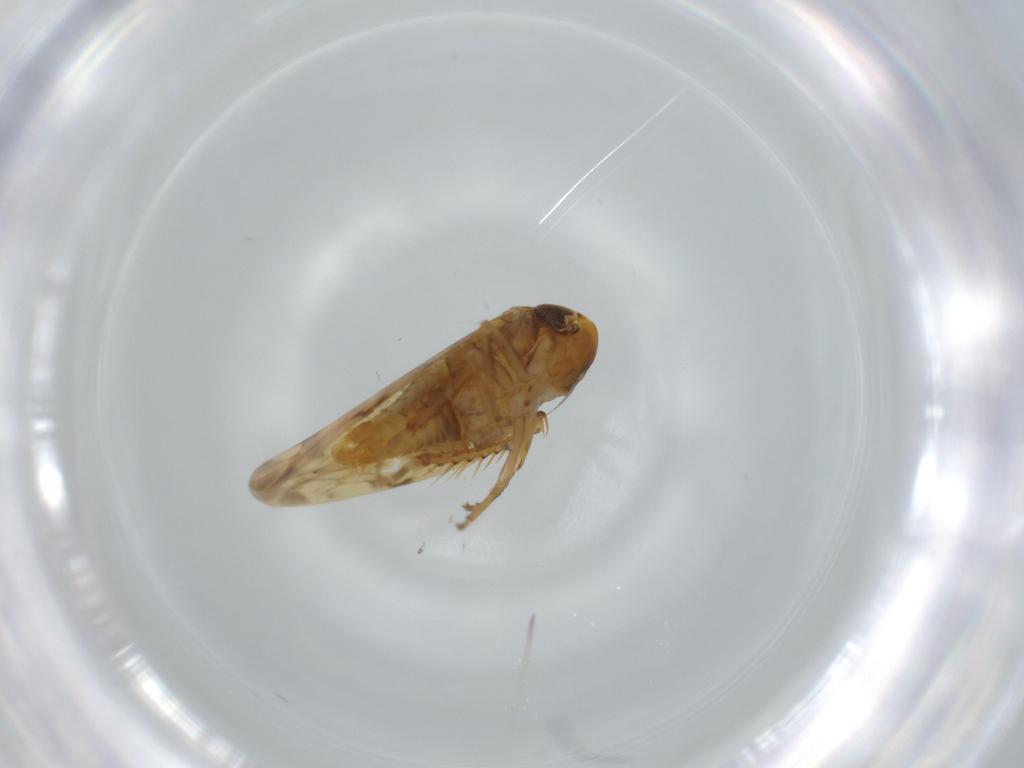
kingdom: Animalia
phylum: Arthropoda
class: Insecta
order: Hemiptera
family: Cicadellidae
